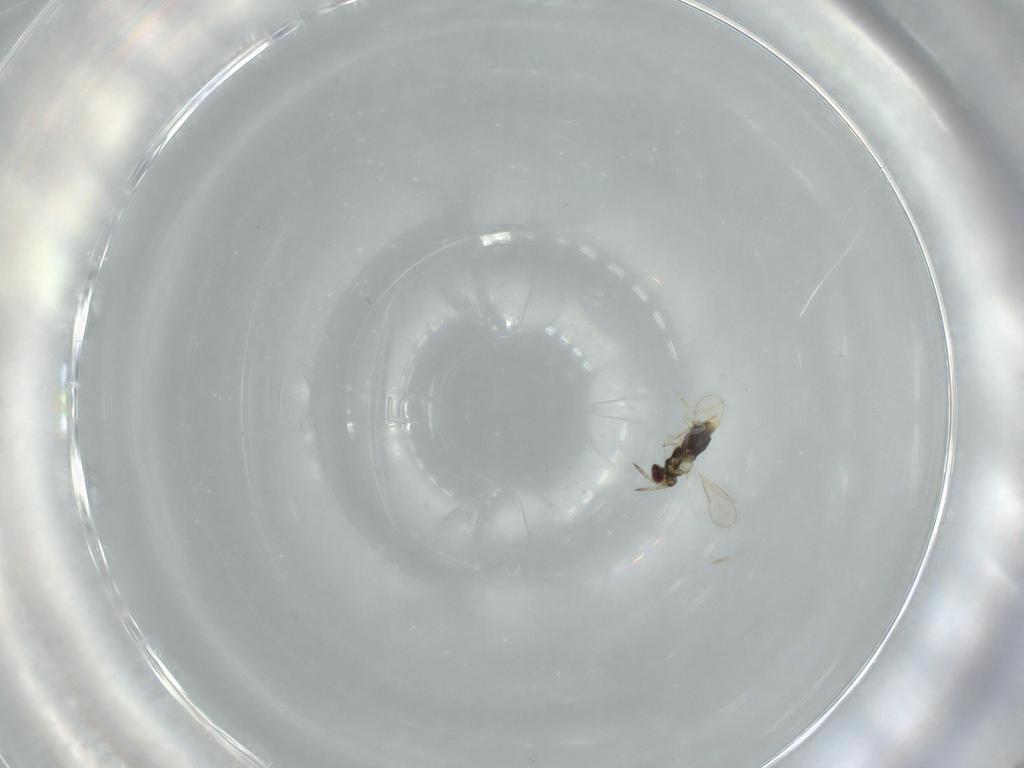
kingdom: Animalia
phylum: Arthropoda
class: Insecta
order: Hymenoptera
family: Aphelinidae
